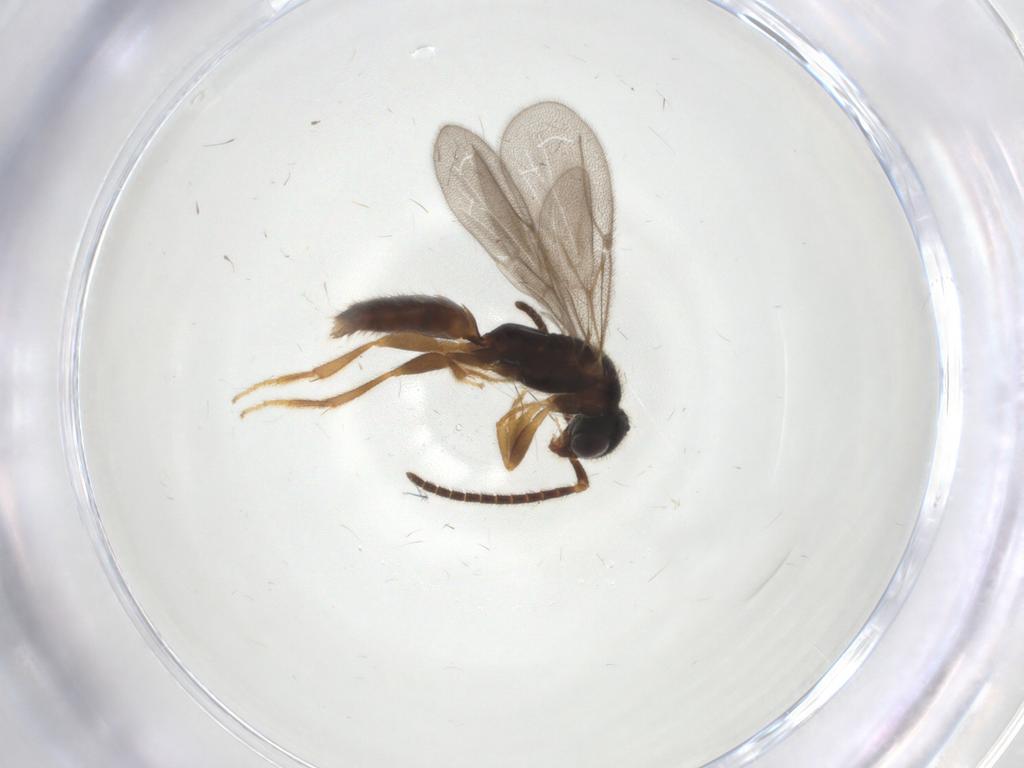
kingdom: Animalia
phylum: Arthropoda
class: Insecta
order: Hymenoptera
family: Bethylidae
